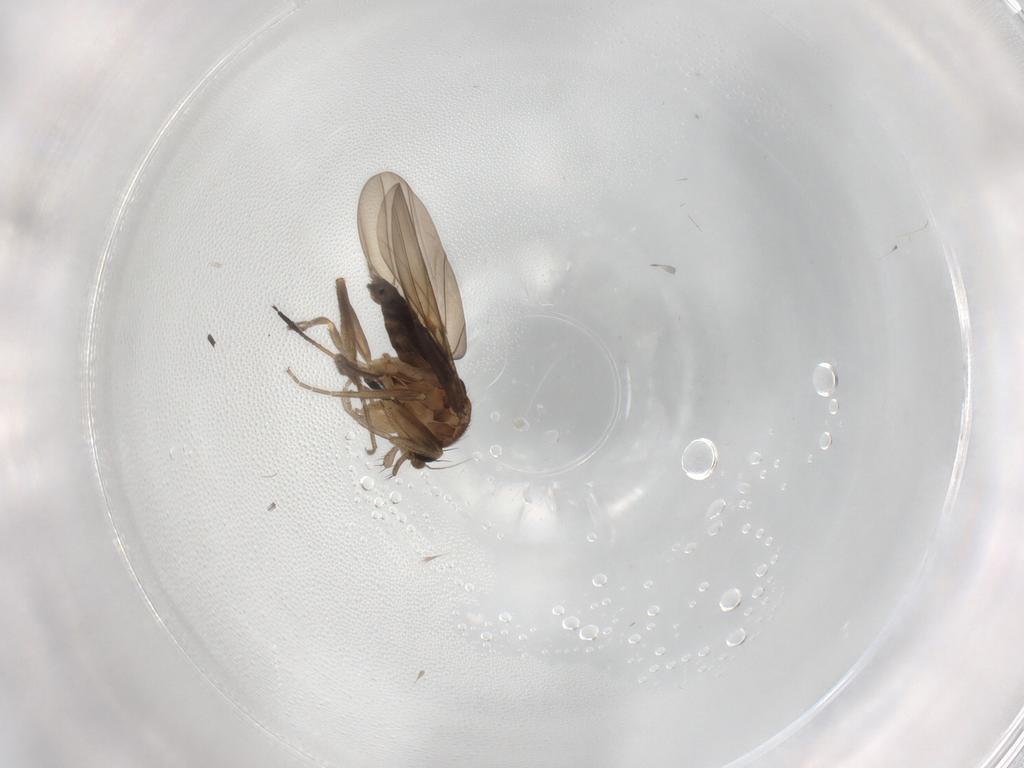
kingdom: Animalia
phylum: Arthropoda
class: Insecta
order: Diptera
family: Phoridae
